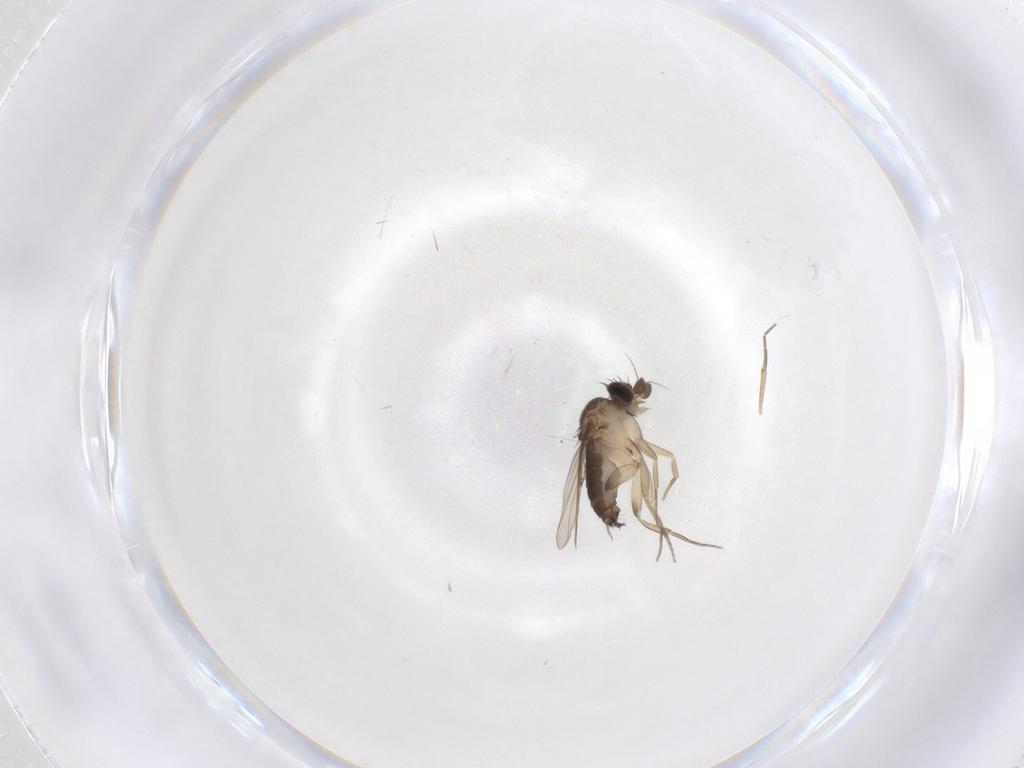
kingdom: Animalia
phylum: Arthropoda
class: Insecta
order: Diptera
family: Phoridae
